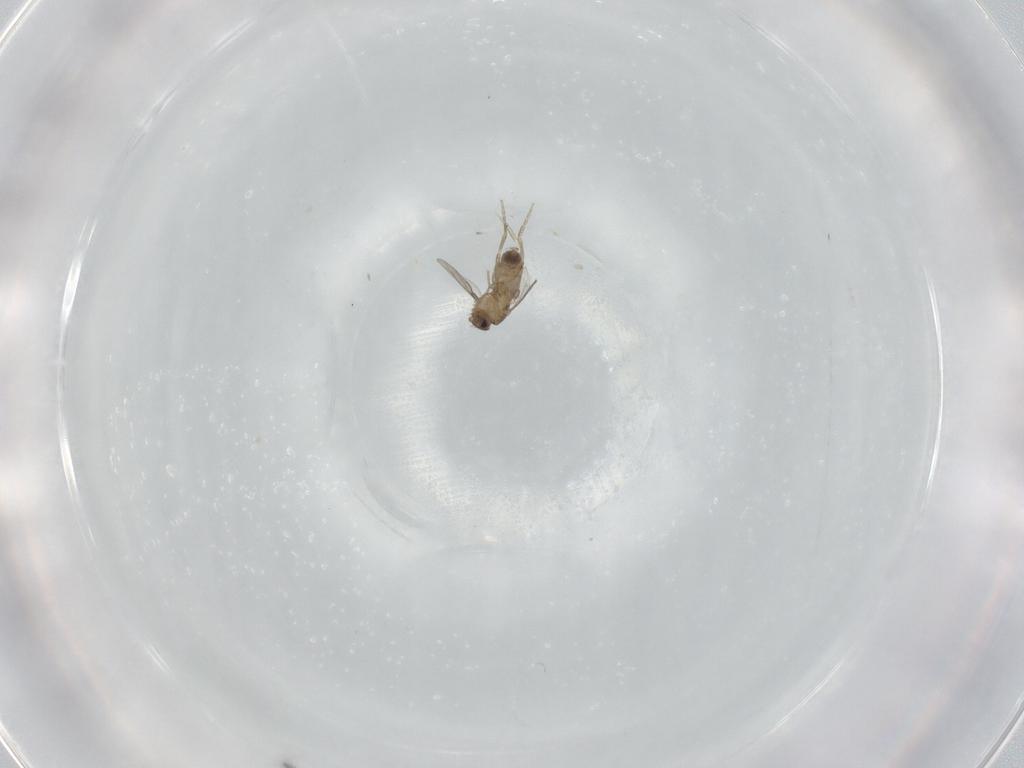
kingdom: Animalia
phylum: Arthropoda
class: Insecta
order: Diptera
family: Phoridae
